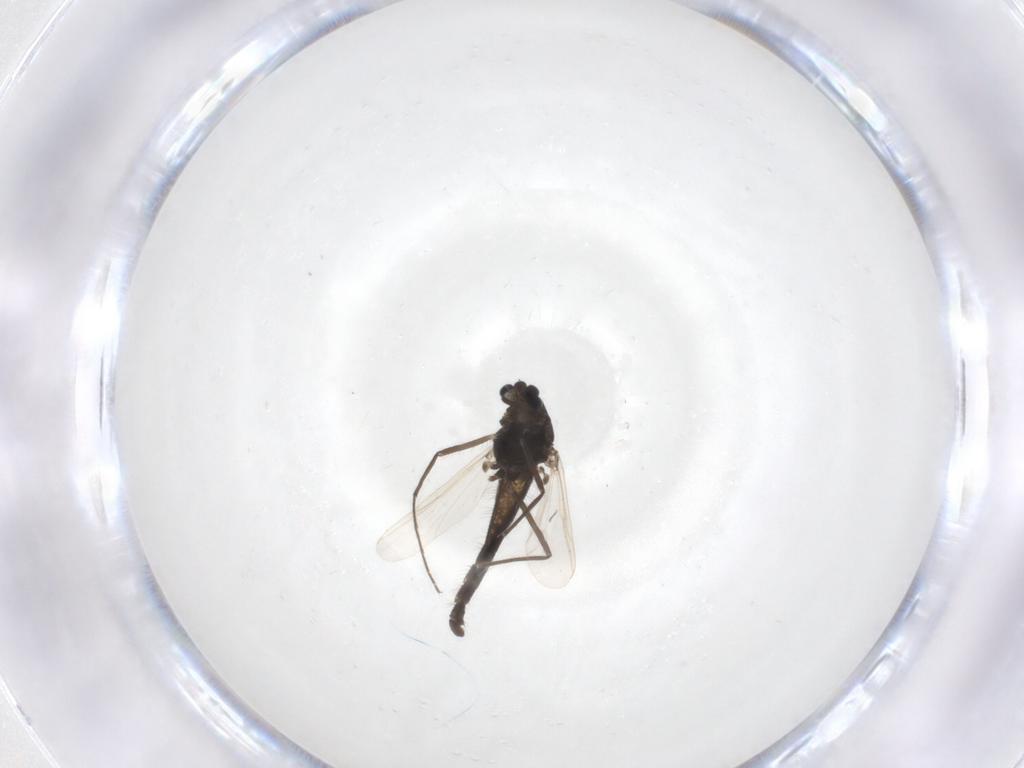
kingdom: Animalia
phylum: Arthropoda
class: Insecta
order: Diptera
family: Chironomidae
